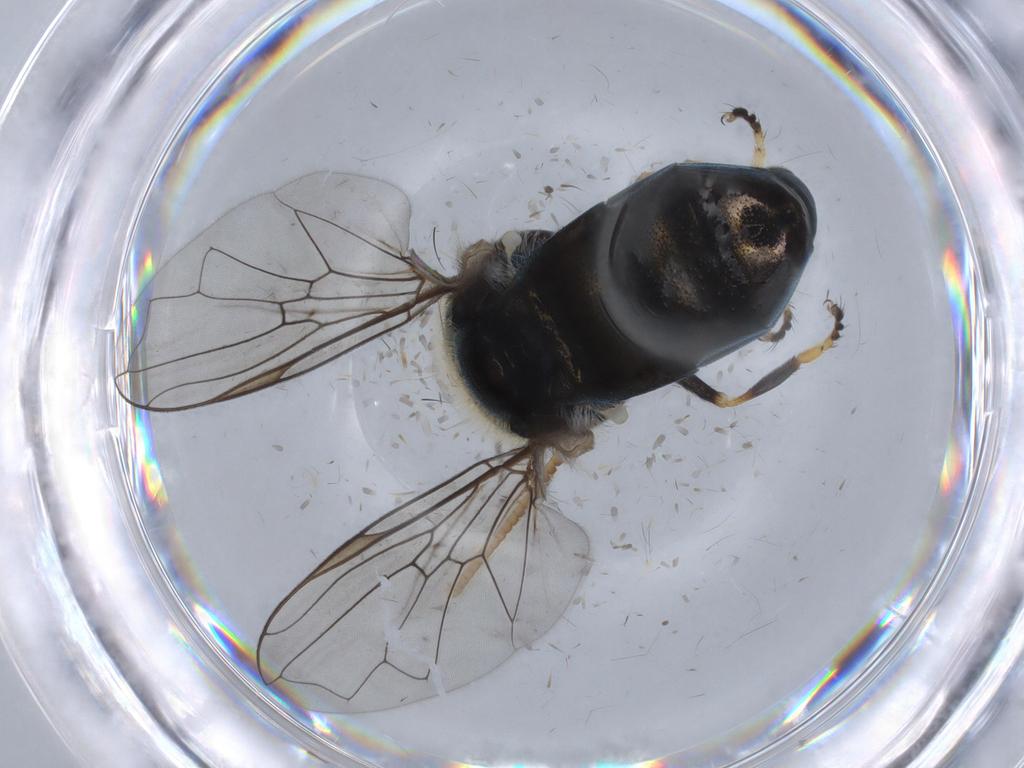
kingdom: Animalia
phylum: Arthropoda
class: Insecta
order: Diptera
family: Syrphidae
